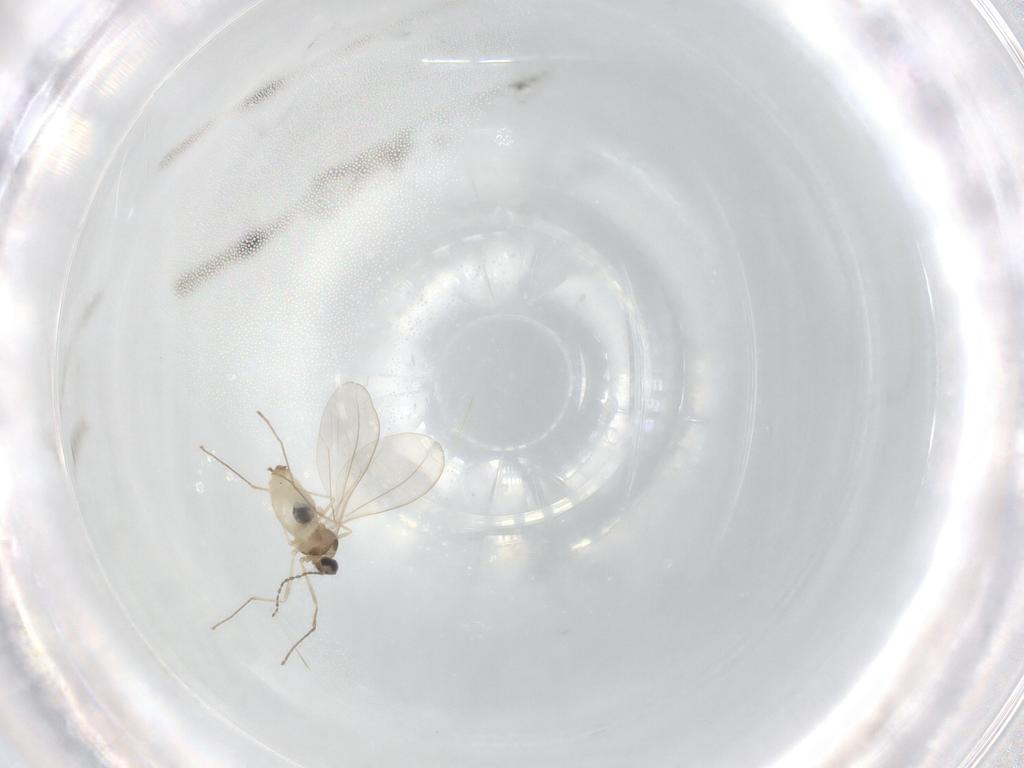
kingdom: Animalia
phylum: Arthropoda
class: Insecta
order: Diptera
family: Cecidomyiidae
